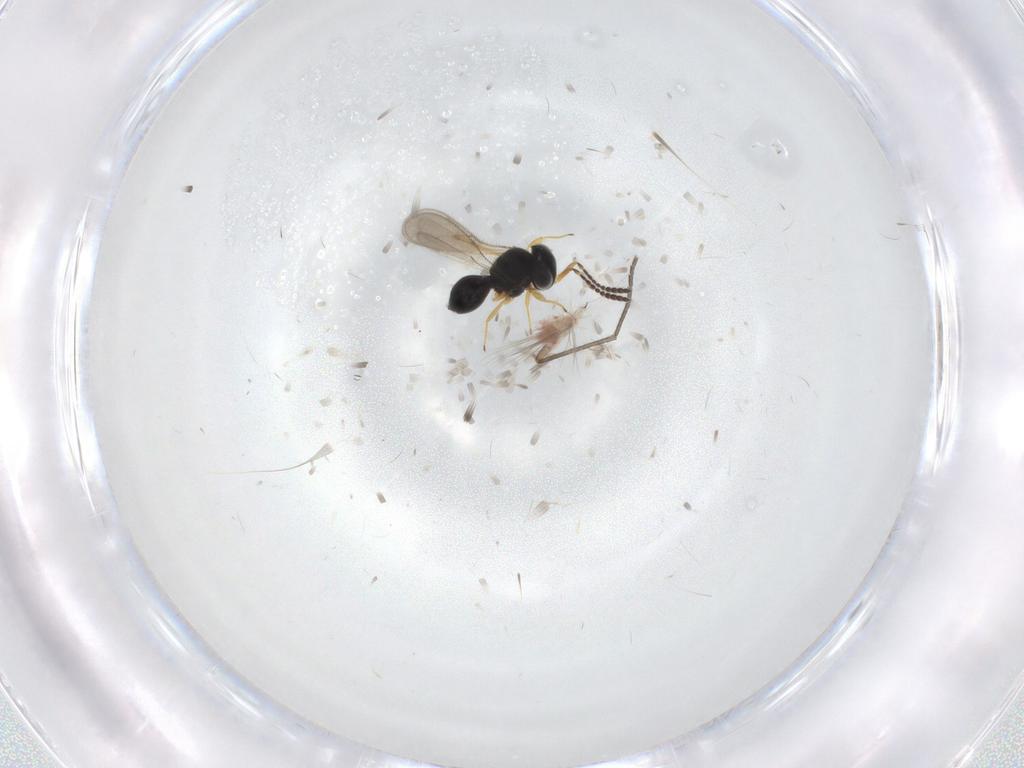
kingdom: Animalia
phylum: Arthropoda
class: Insecta
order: Hymenoptera
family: Scelionidae
